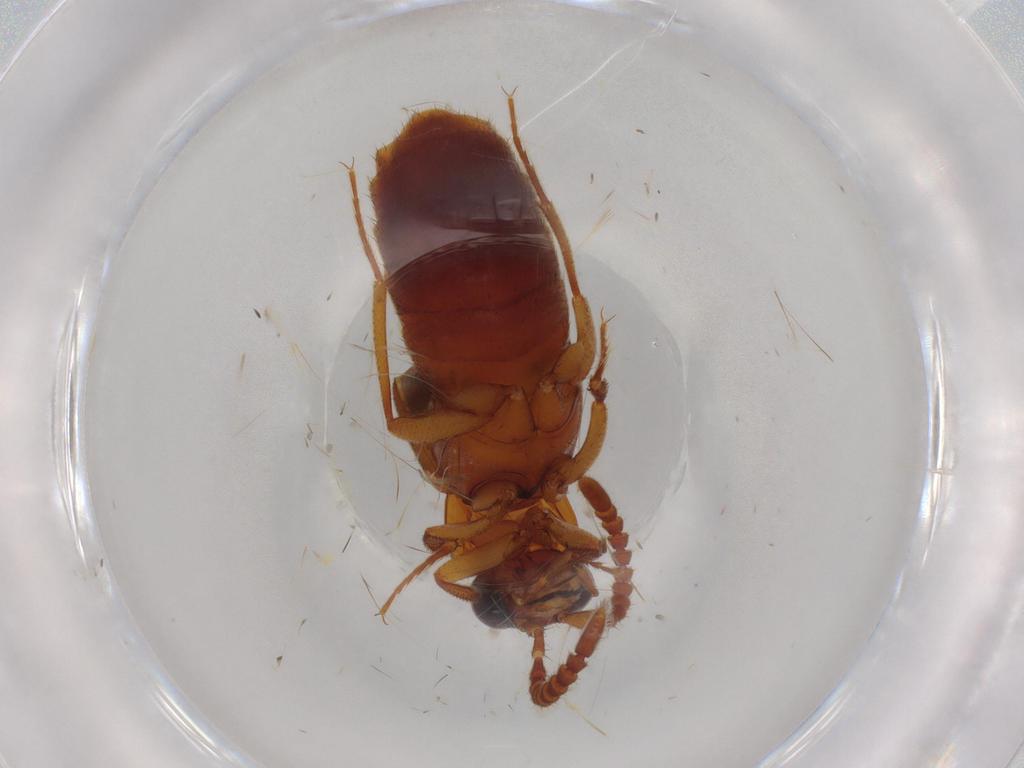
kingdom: Animalia
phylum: Arthropoda
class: Insecta
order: Coleoptera
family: Staphylinidae
